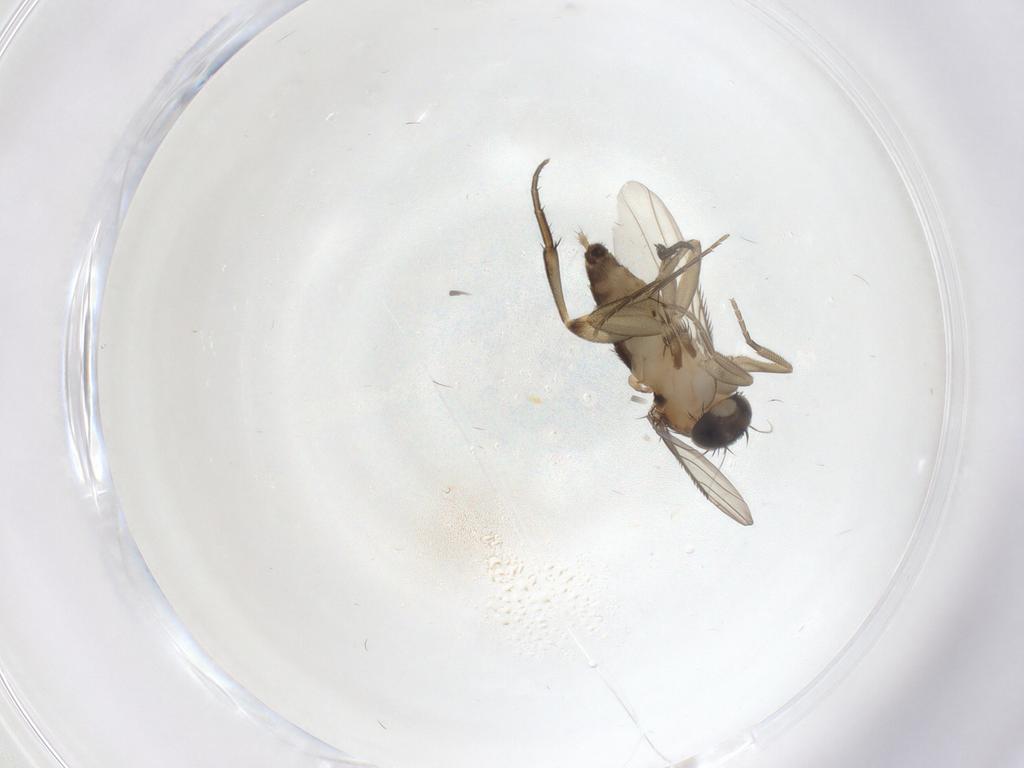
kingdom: Animalia
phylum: Arthropoda
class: Insecta
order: Diptera
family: Phoridae
